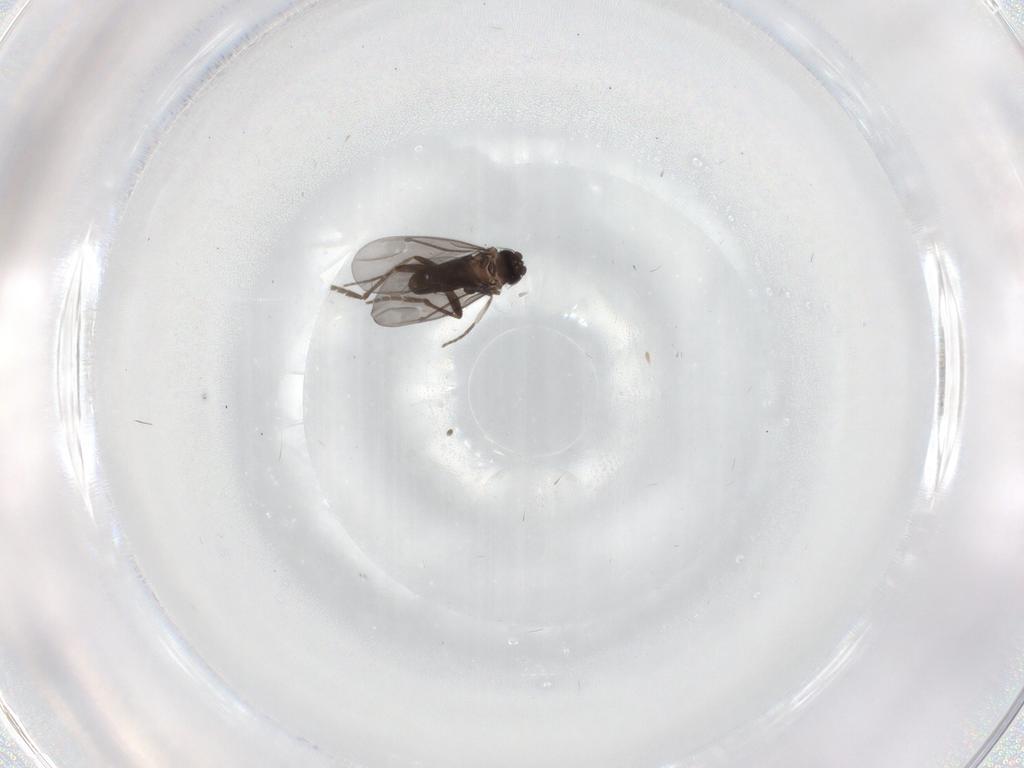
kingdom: Animalia
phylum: Arthropoda
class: Insecta
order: Diptera
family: Phoridae
